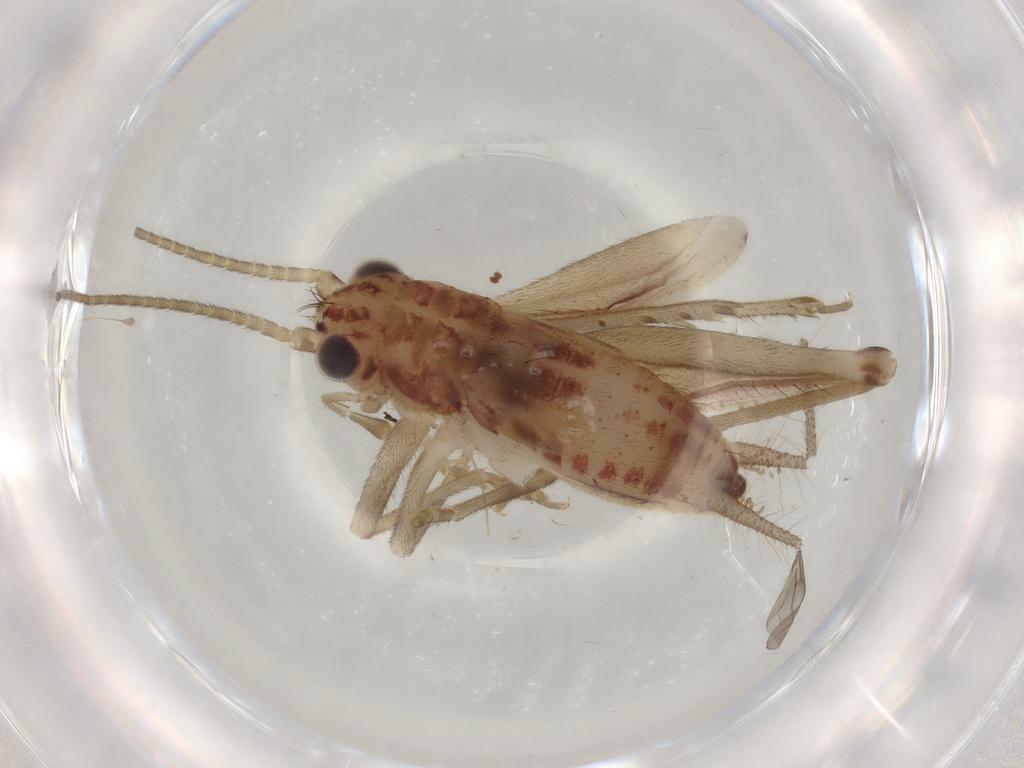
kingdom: Animalia
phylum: Arthropoda
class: Insecta
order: Orthoptera
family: Trigonidiidae
